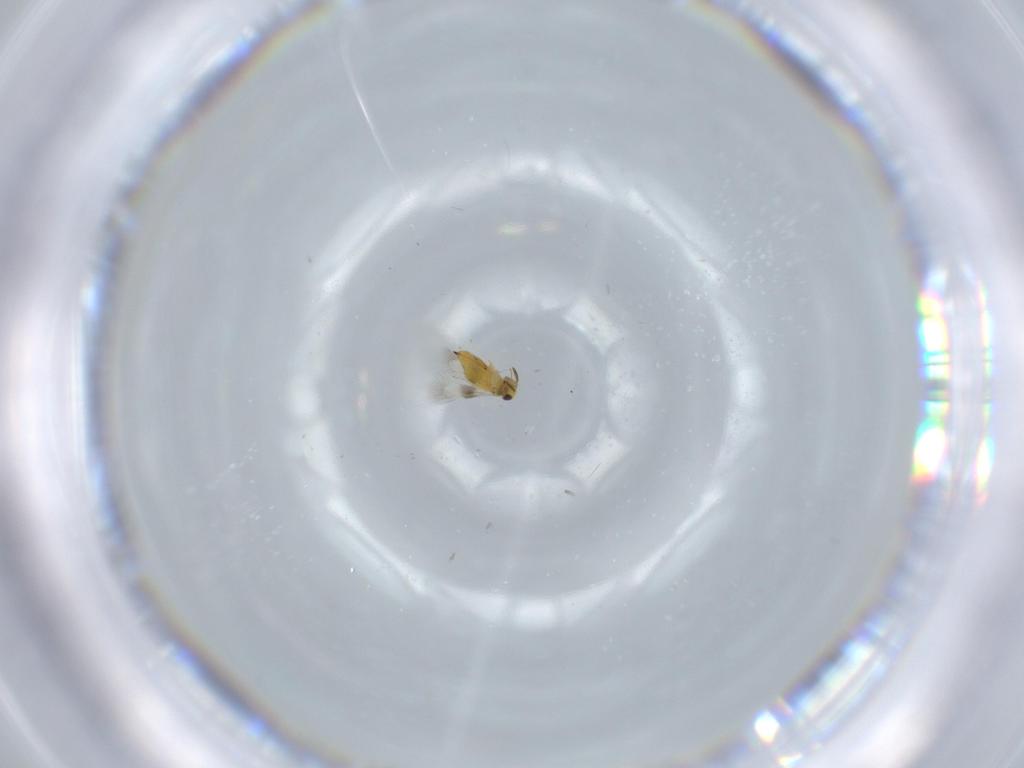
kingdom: Animalia
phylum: Arthropoda
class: Insecta
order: Hymenoptera
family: Signiphoridae
